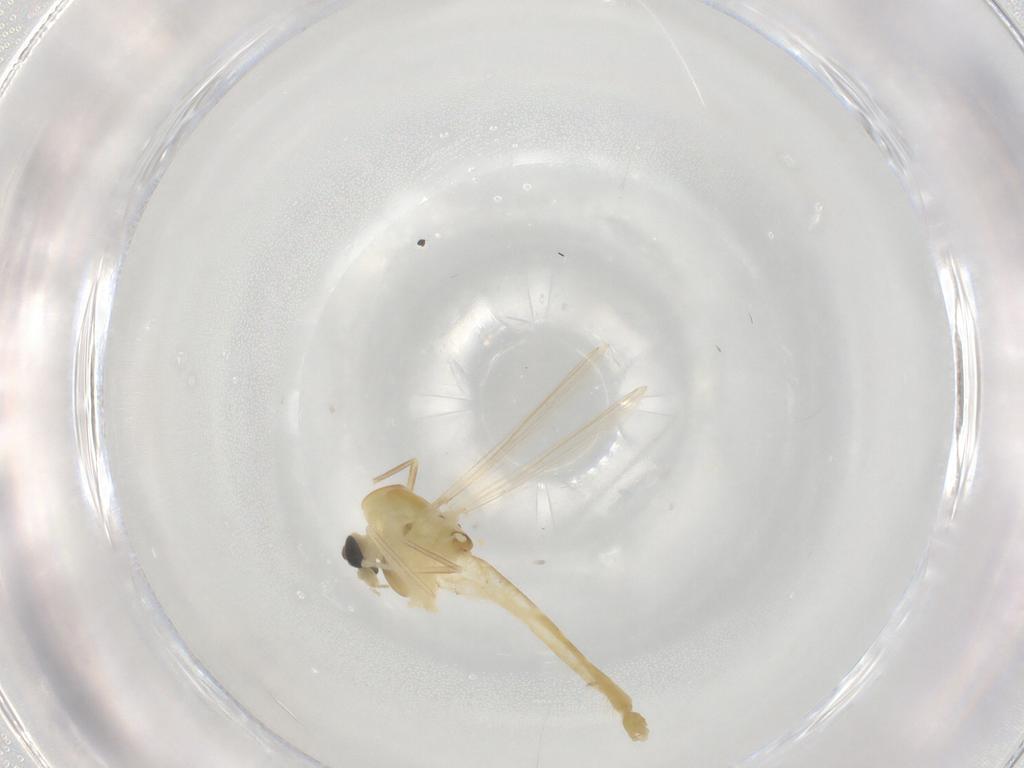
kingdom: Animalia
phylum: Arthropoda
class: Insecta
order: Diptera
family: Chironomidae
